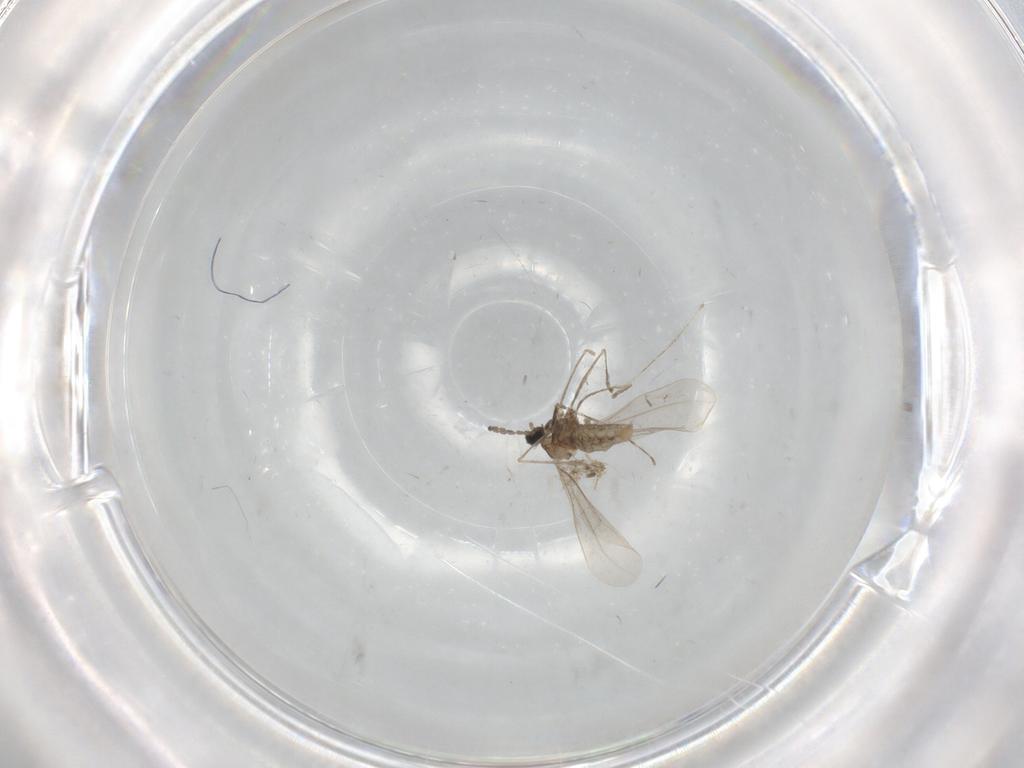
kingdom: Animalia
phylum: Arthropoda
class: Insecta
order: Diptera
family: Cecidomyiidae
